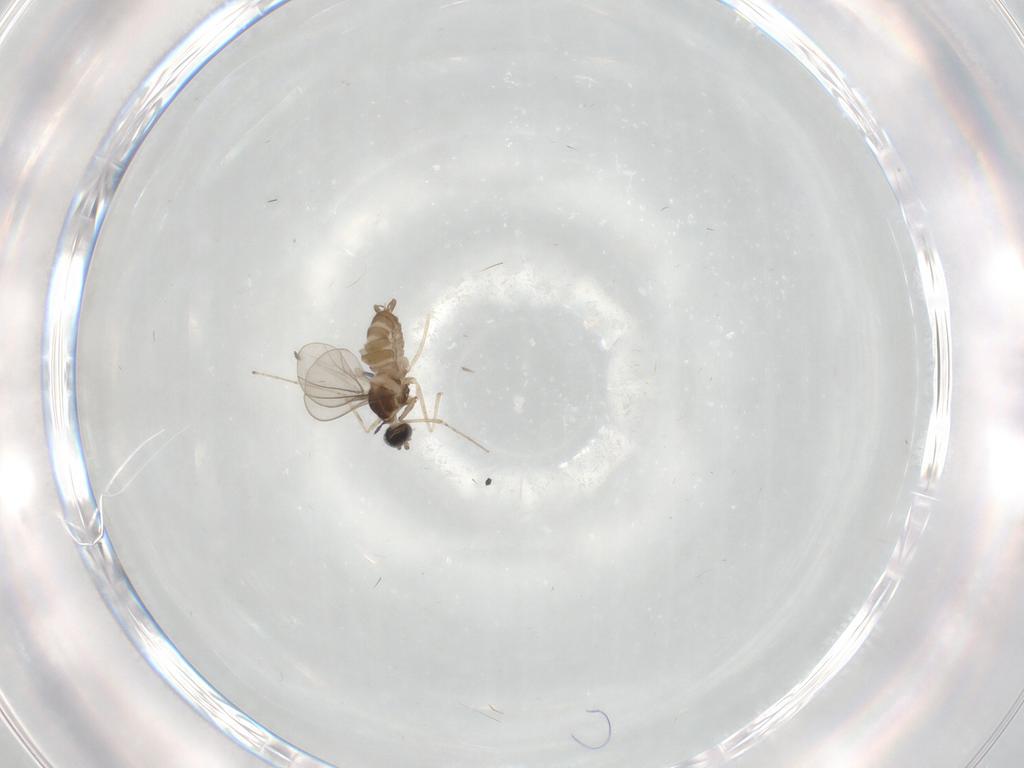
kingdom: Animalia
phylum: Arthropoda
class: Insecta
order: Diptera
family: Cecidomyiidae
